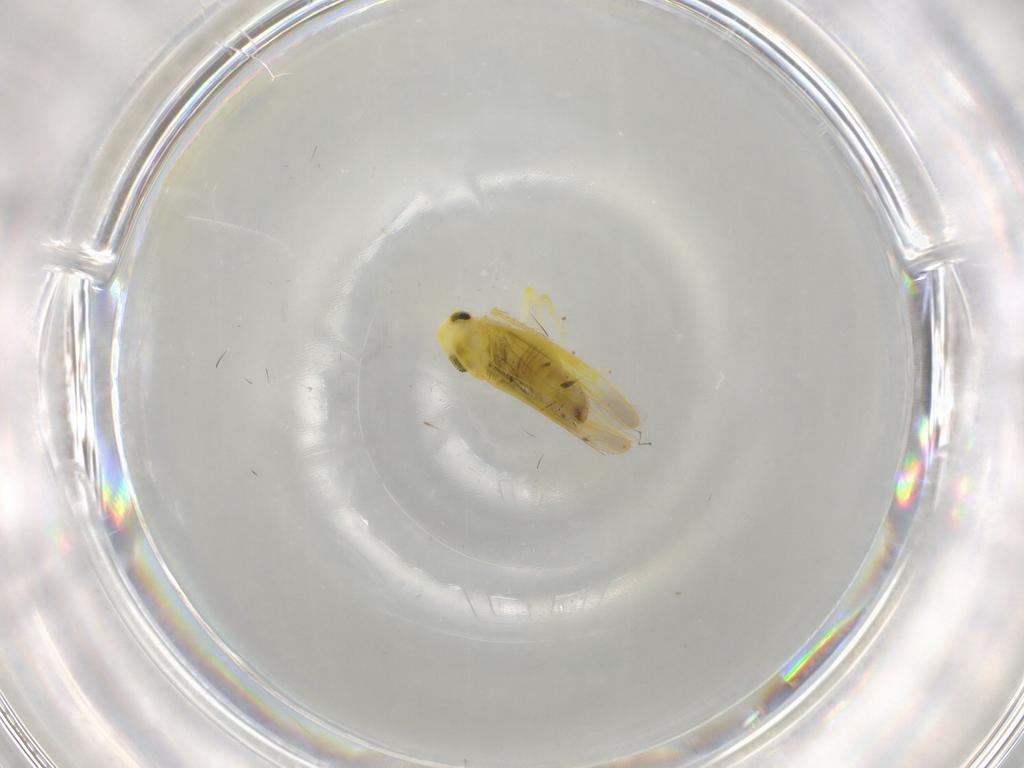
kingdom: Animalia
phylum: Arthropoda
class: Insecta
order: Hemiptera
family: Cicadellidae
